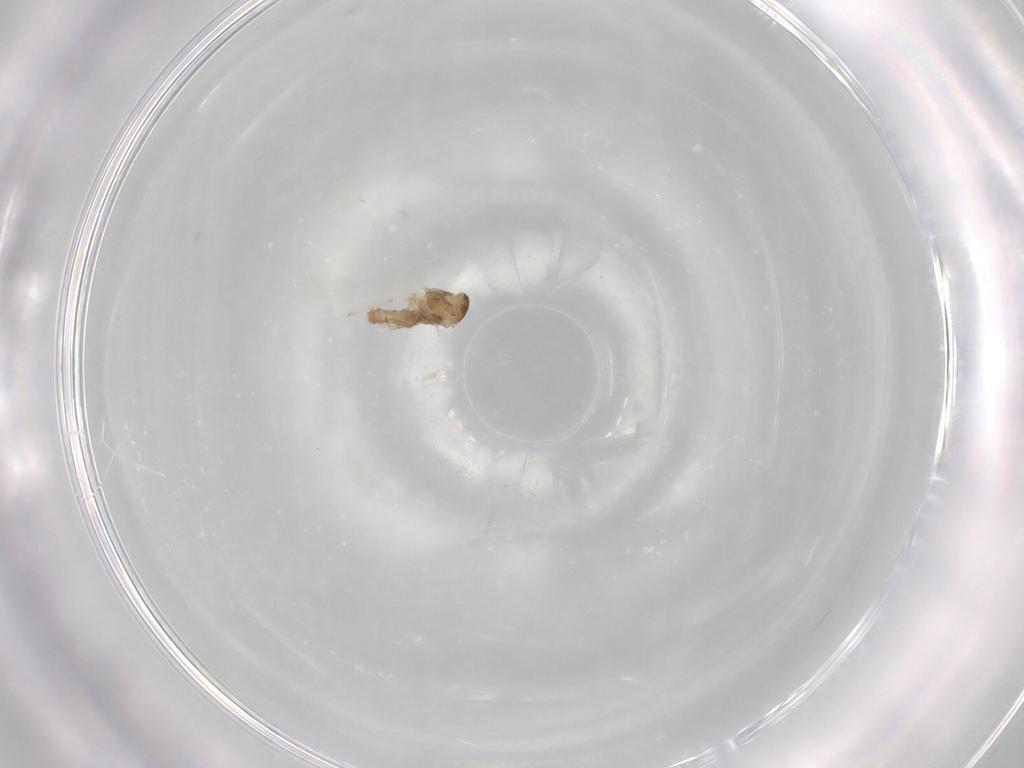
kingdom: Animalia
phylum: Arthropoda
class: Insecta
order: Diptera
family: Cecidomyiidae
